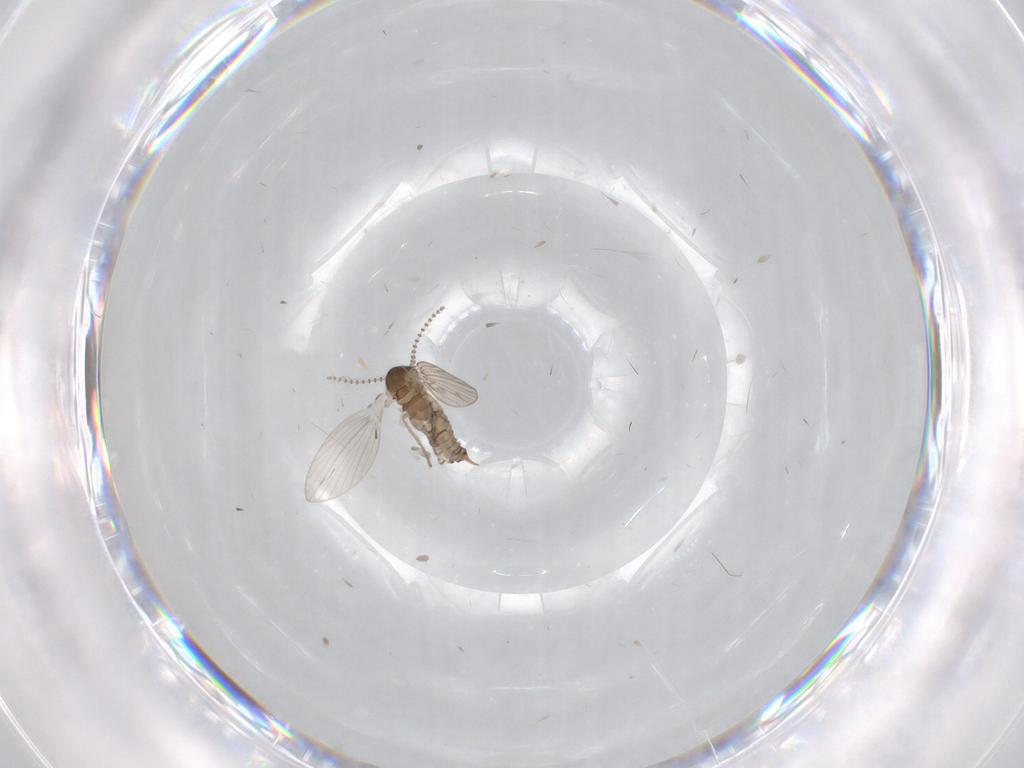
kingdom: Animalia
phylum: Arthropoda
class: Insecta
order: Diptera
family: Psychodidae
